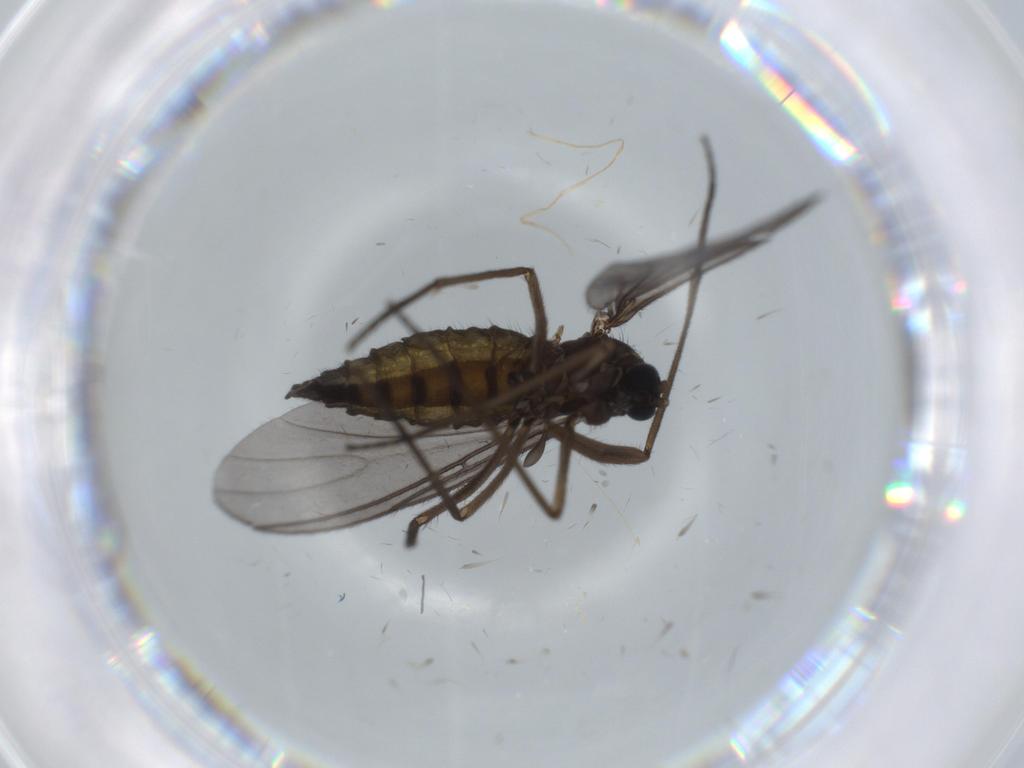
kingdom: Animalia
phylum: Arthropoda
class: Insecta
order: Diptera
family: Sciaridae
